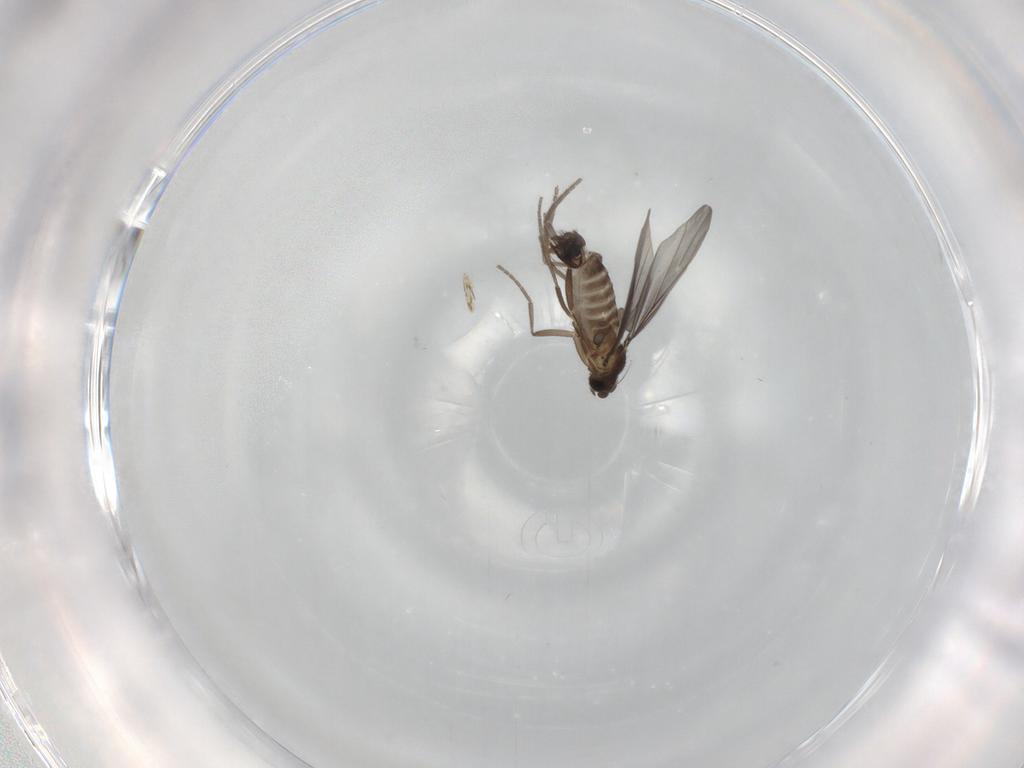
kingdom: Animalia
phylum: Arthropoda
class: Insecta
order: Diptera
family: Phoridae
